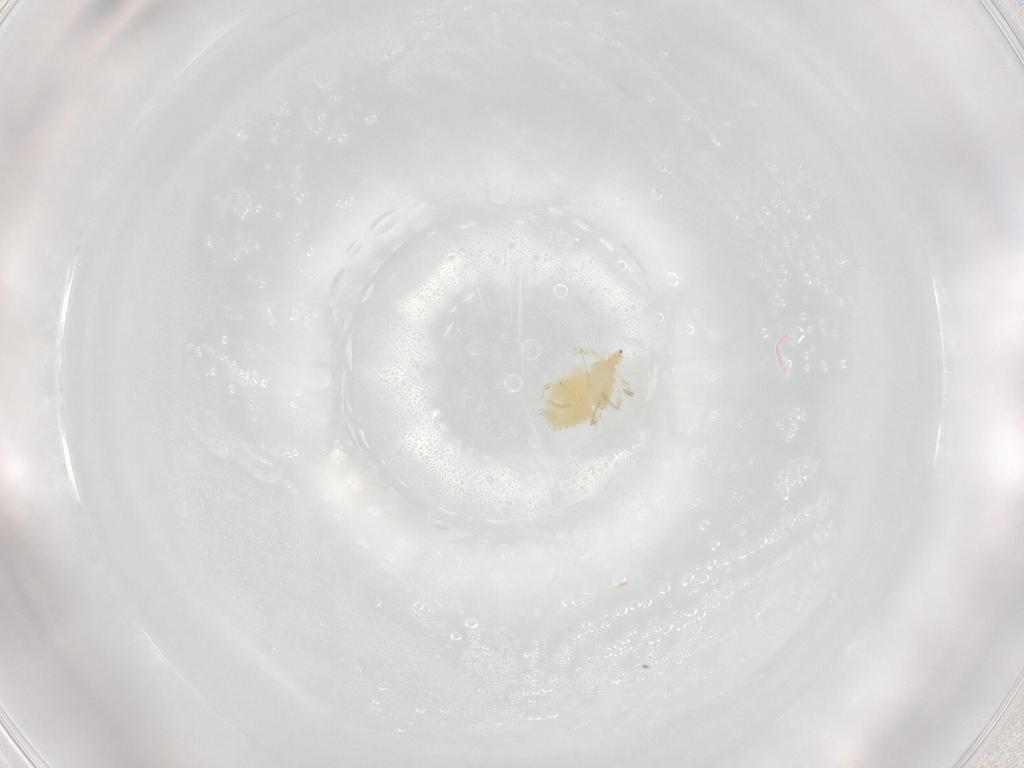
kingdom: Animalia
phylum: Arthropoda
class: Arachnida
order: Trombidiformes
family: Erythraeidae
